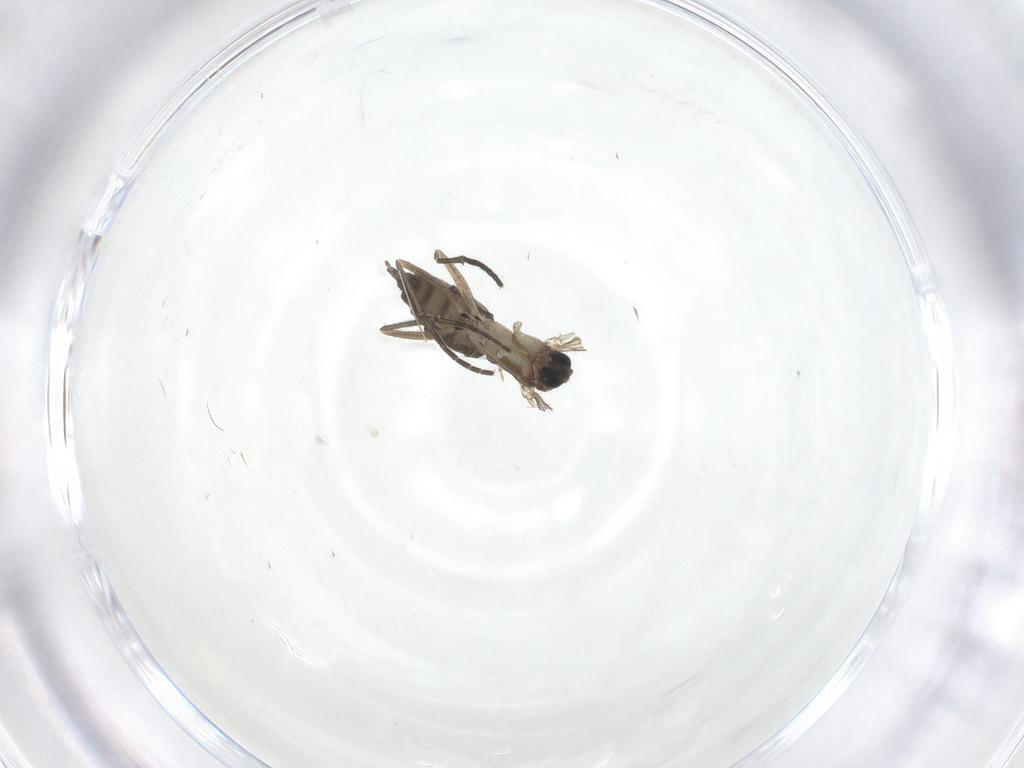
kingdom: Animalia
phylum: Arthropoda
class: Insecta
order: Diptera
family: Sciaridae
